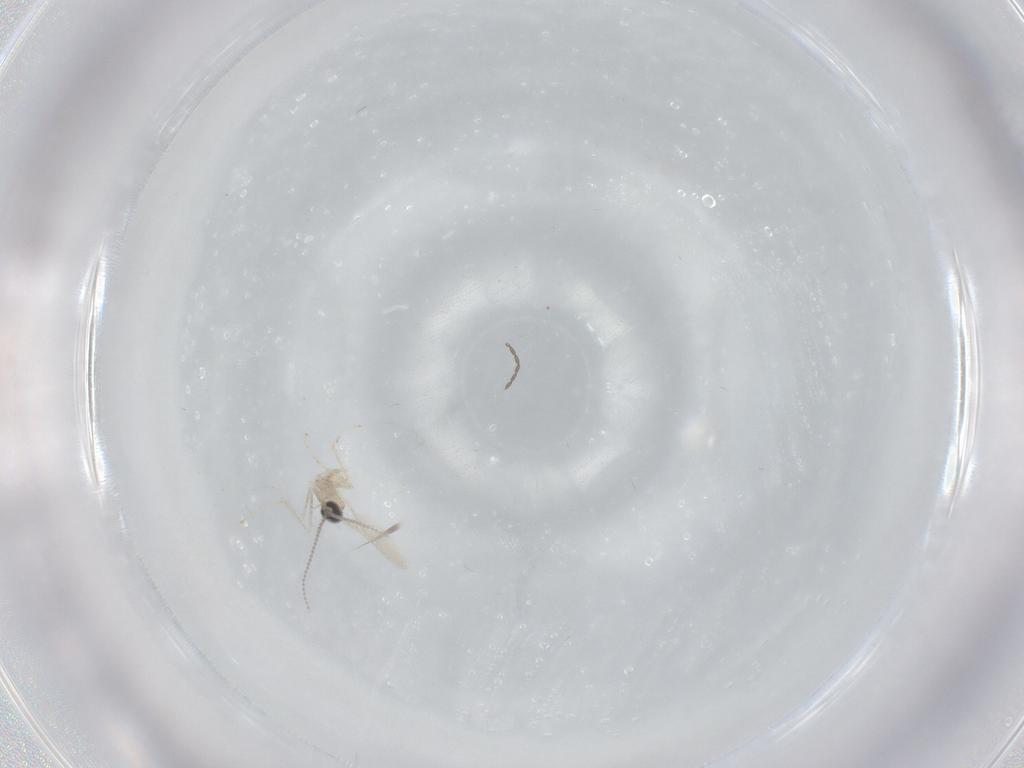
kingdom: Animalia
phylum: Arthropoda
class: Insecta
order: Diptera
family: Cecidomyiidae
